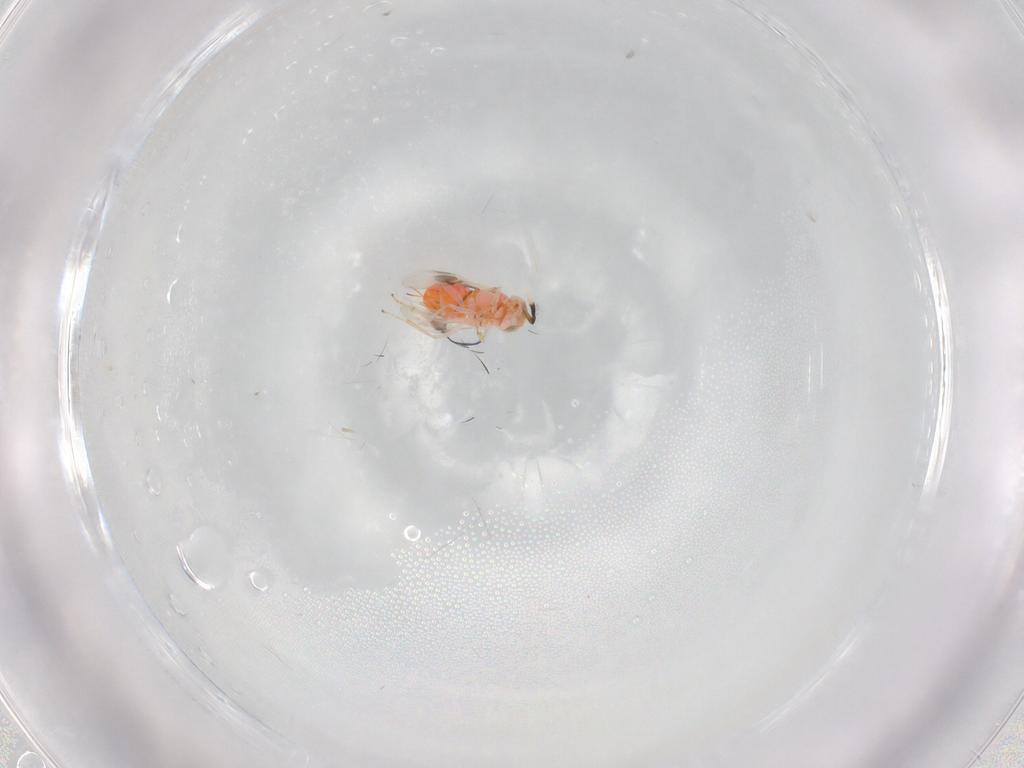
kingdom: Animalia
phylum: Arthropoda
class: Insecta
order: Hymenoptera
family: Encyrtidae
